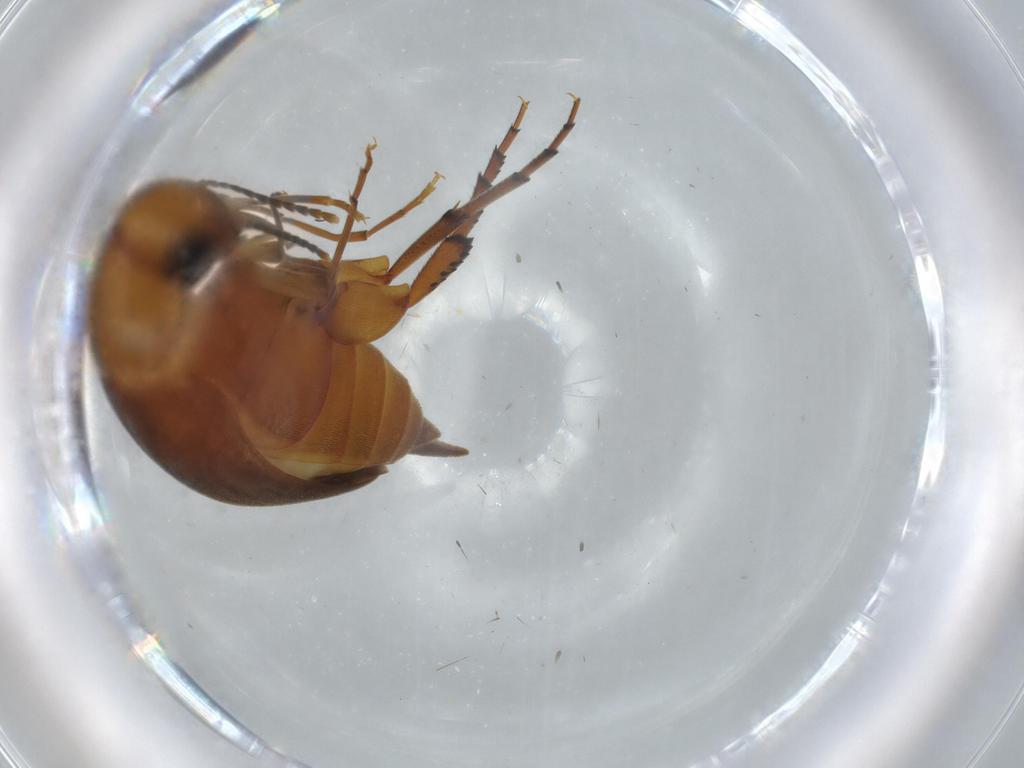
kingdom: Animalia
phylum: Arthropoda
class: Insecta
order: Coleoptera
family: Mordellidae
